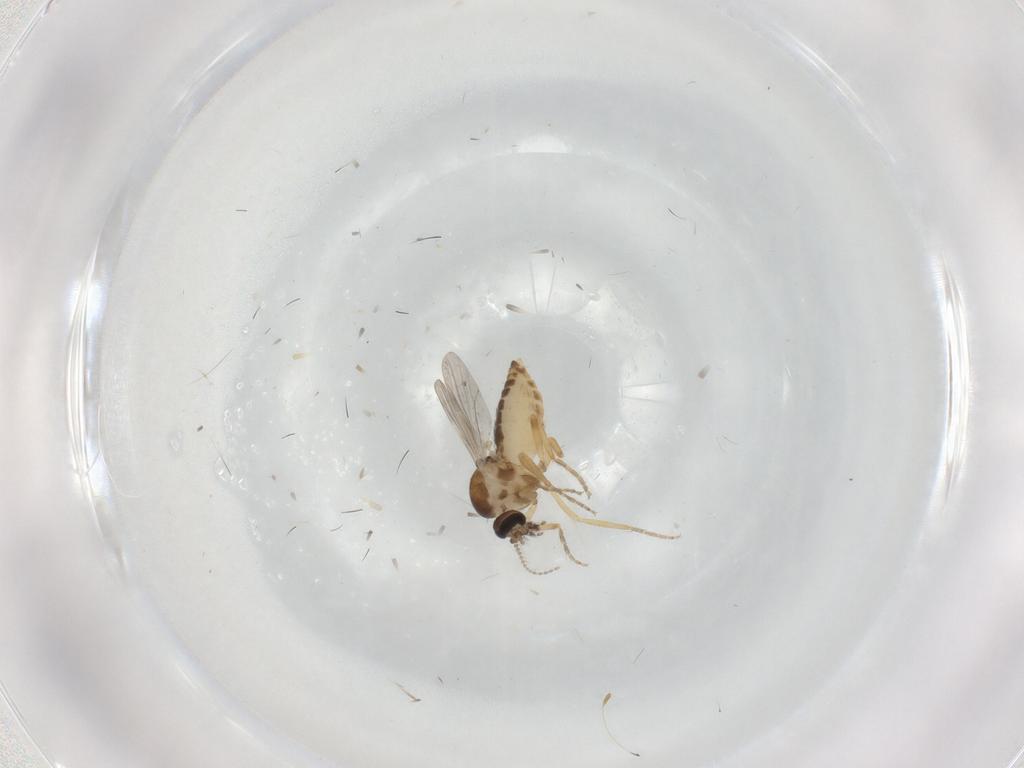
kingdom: Animalia
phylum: Arthropoda
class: Insecta
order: Diptera
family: Ceratopogonidae
